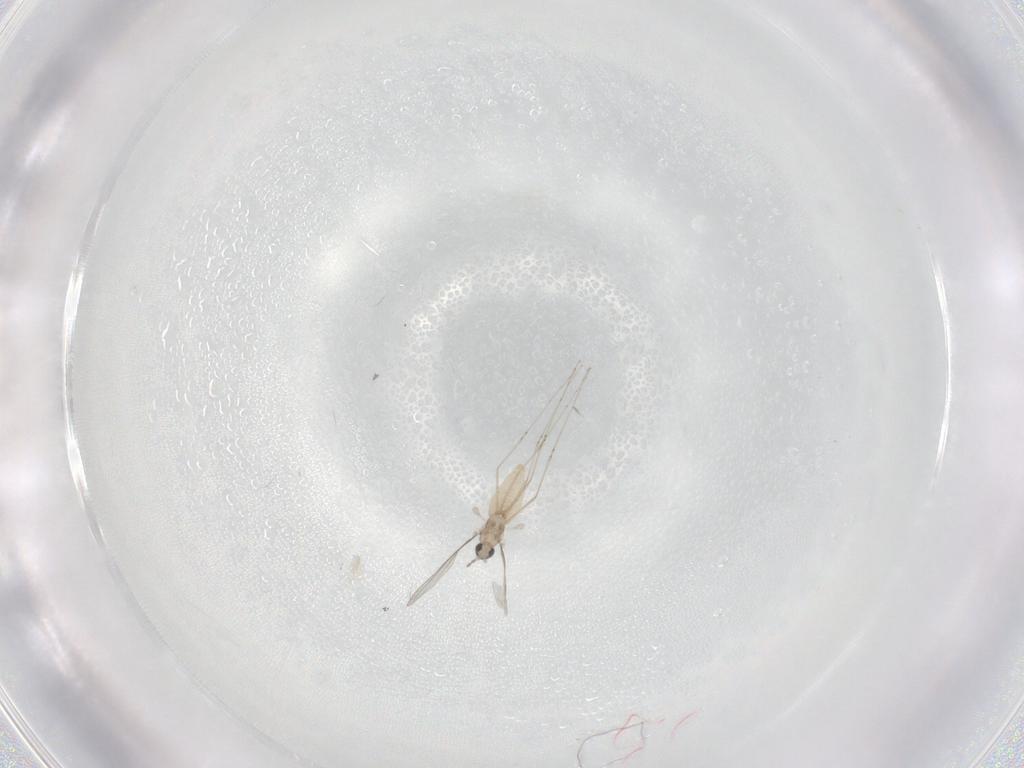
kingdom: Animalia
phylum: Arthropoda
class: Insecta
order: Diptera
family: Cecidomyiidae
